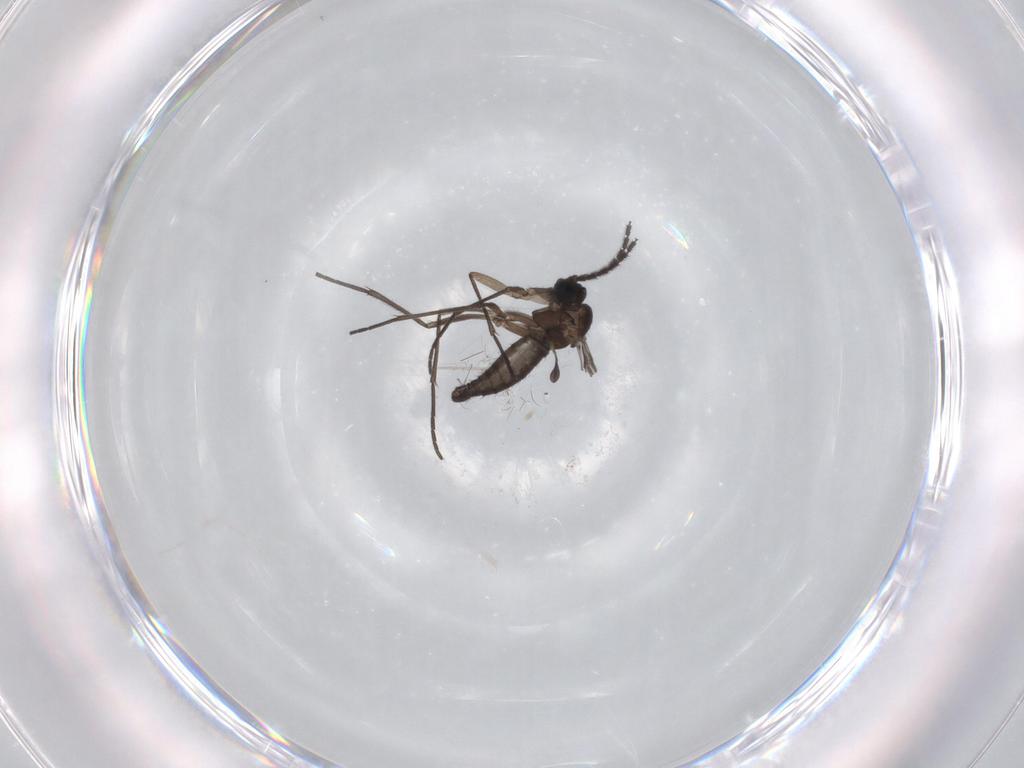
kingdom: Animalia
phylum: Arthropoda
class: Insecta
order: Diptera
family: Sciaridae
